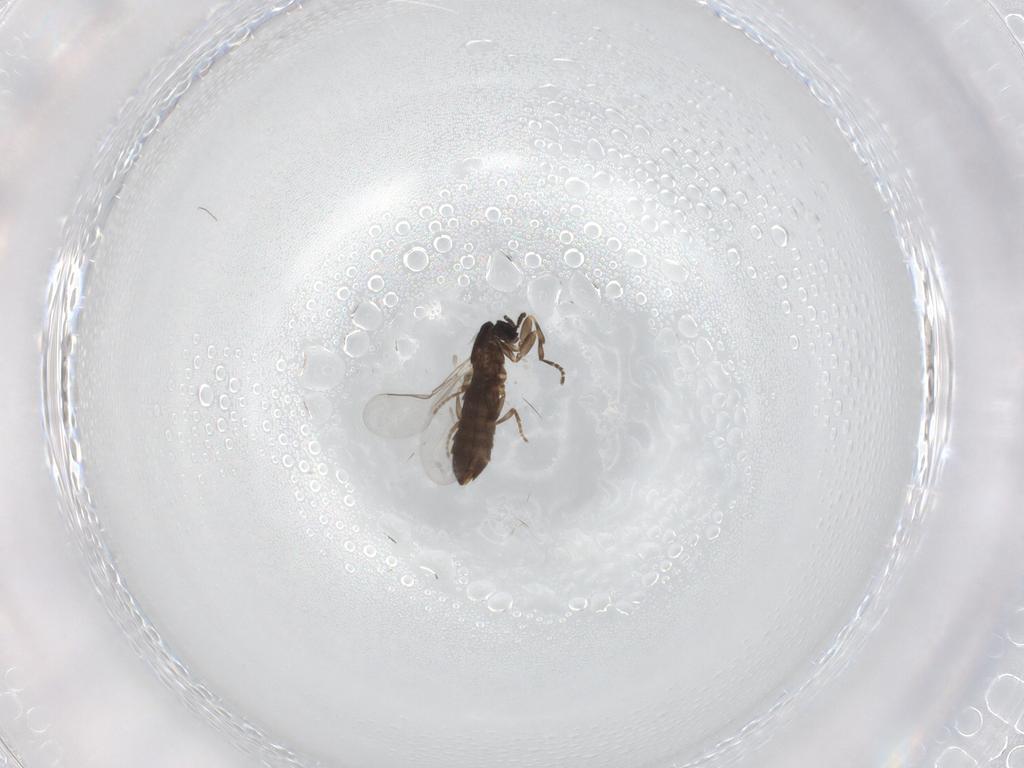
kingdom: Animalia
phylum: Arthropoda
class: Insecta
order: Diptera
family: Scatopsidae
